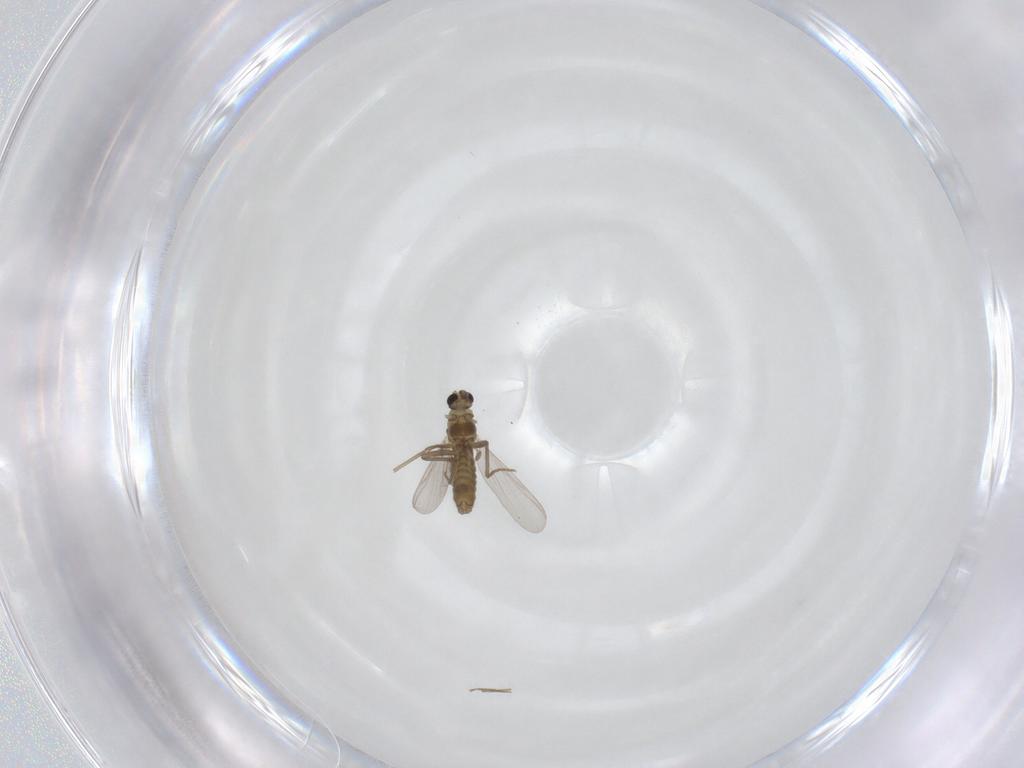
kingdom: Animalia
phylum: Arthropoda
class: Insecta
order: Diptera
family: Chironomidae
